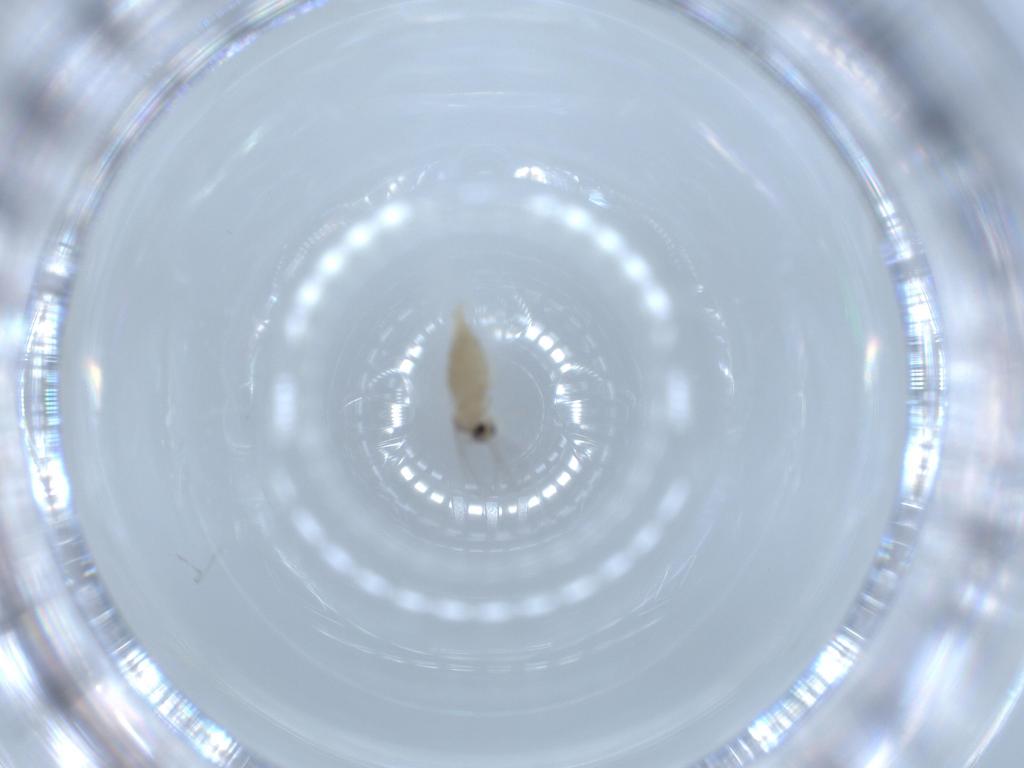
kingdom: Animalia
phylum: Arthropoda
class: Insecta
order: Diptera
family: Cecidomyiidae
